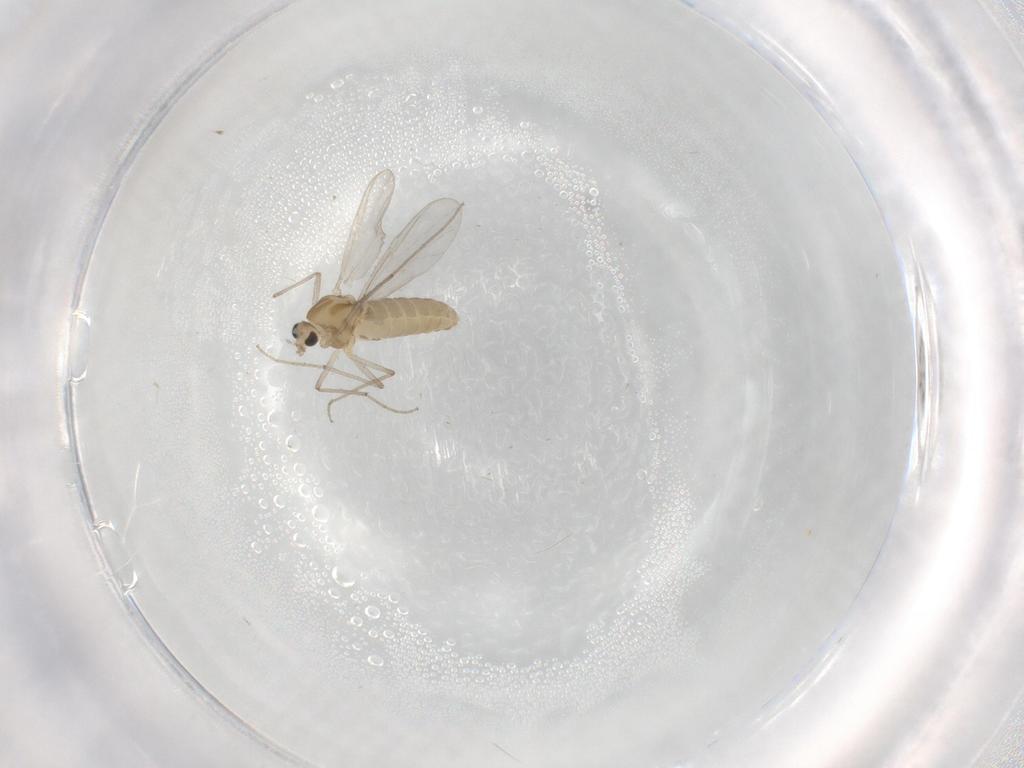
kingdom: Animalia
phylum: Arthropoda
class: Insecta
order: Diptera
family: Chironomidae
